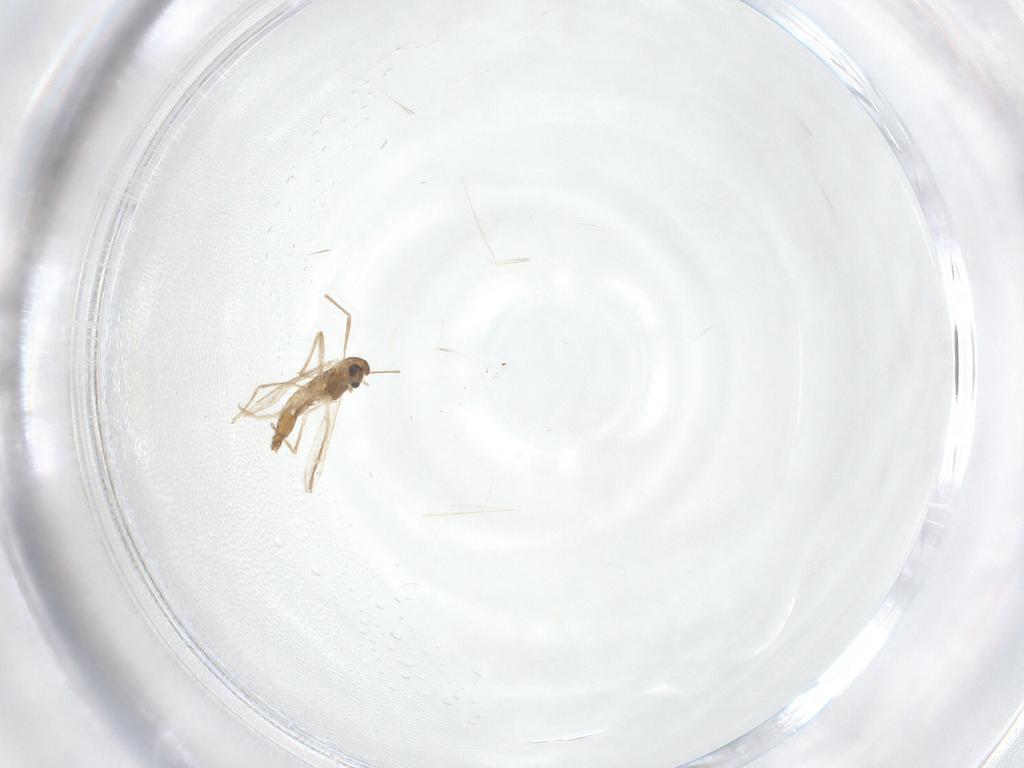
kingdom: Animalia
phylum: Arthropoda
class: Insecta
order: Diptera
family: Chironomidae
